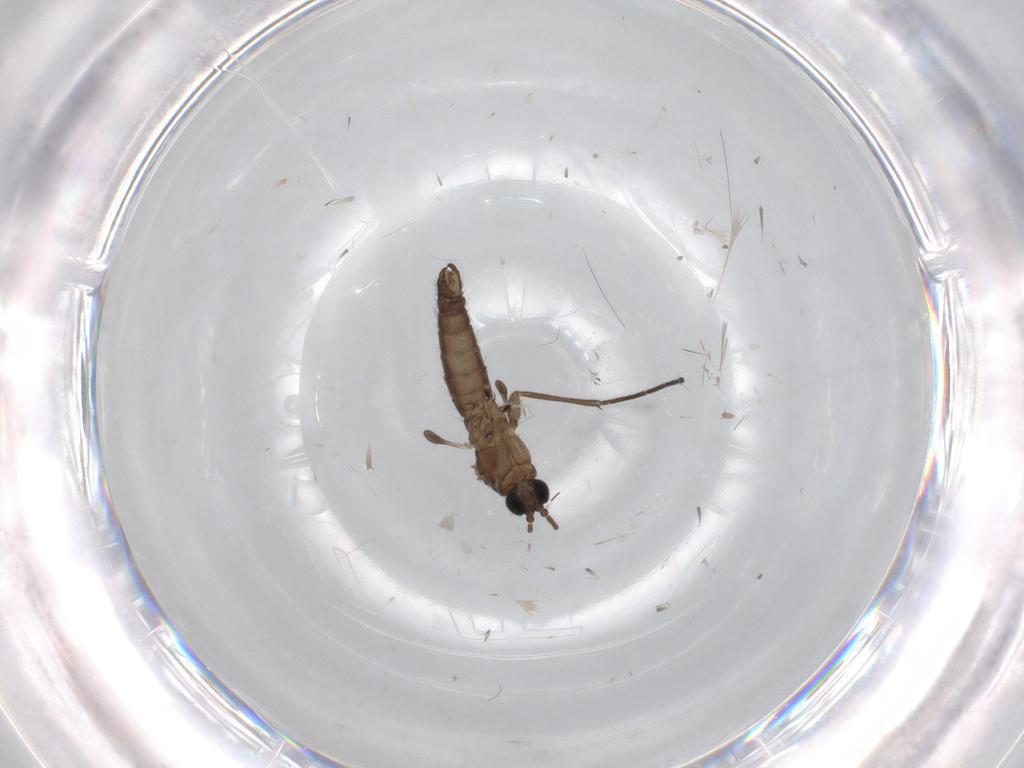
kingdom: Animalia
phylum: Arthropoda
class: Insecta
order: Diptera
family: Sciaridae
